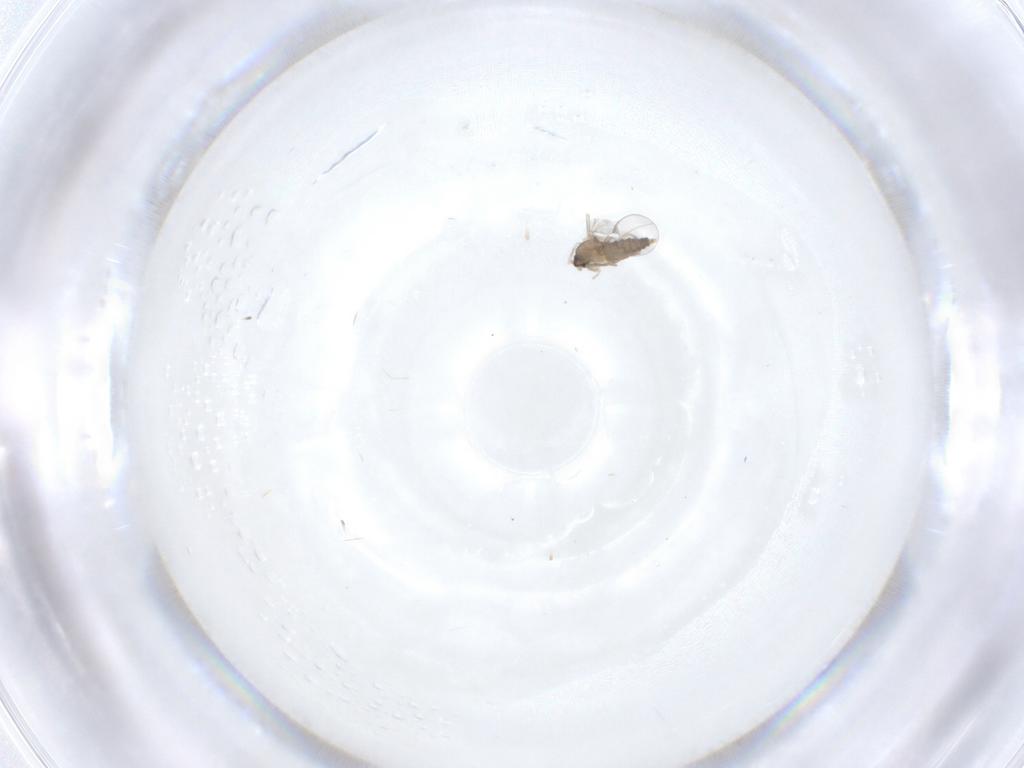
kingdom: Animalia
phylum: Arthropoda
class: Insecta
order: Diptera
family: Cecidomyiidae
